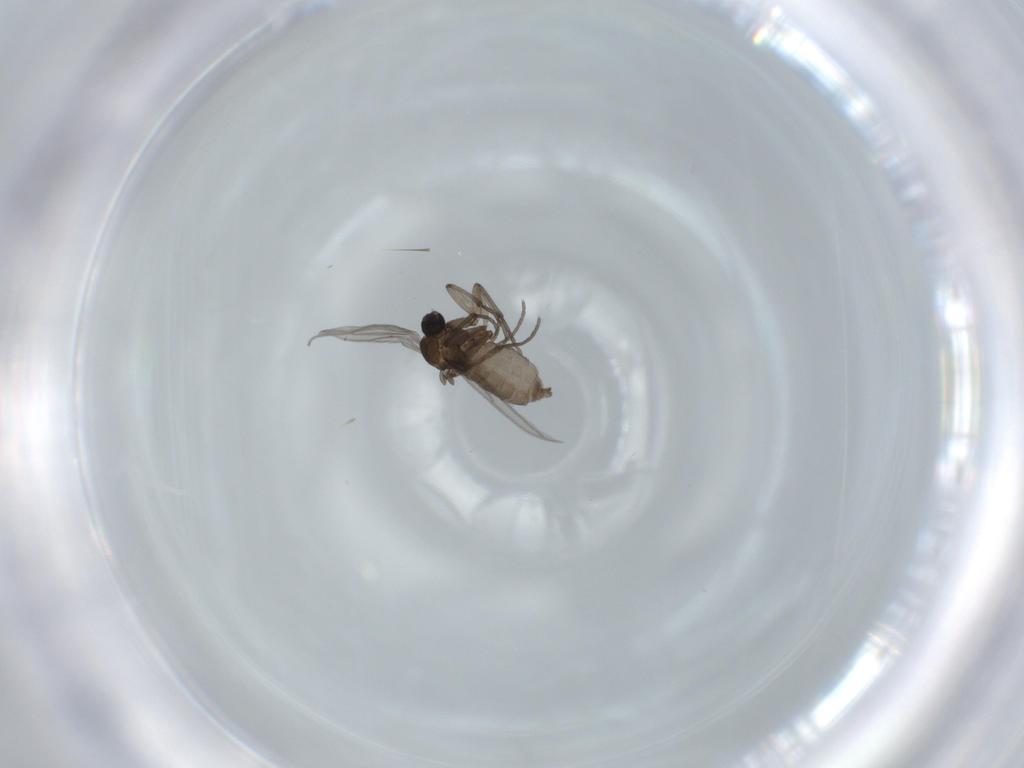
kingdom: Animalia
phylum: Arthropoda
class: Insecta
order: Diptera
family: Sciaridae
